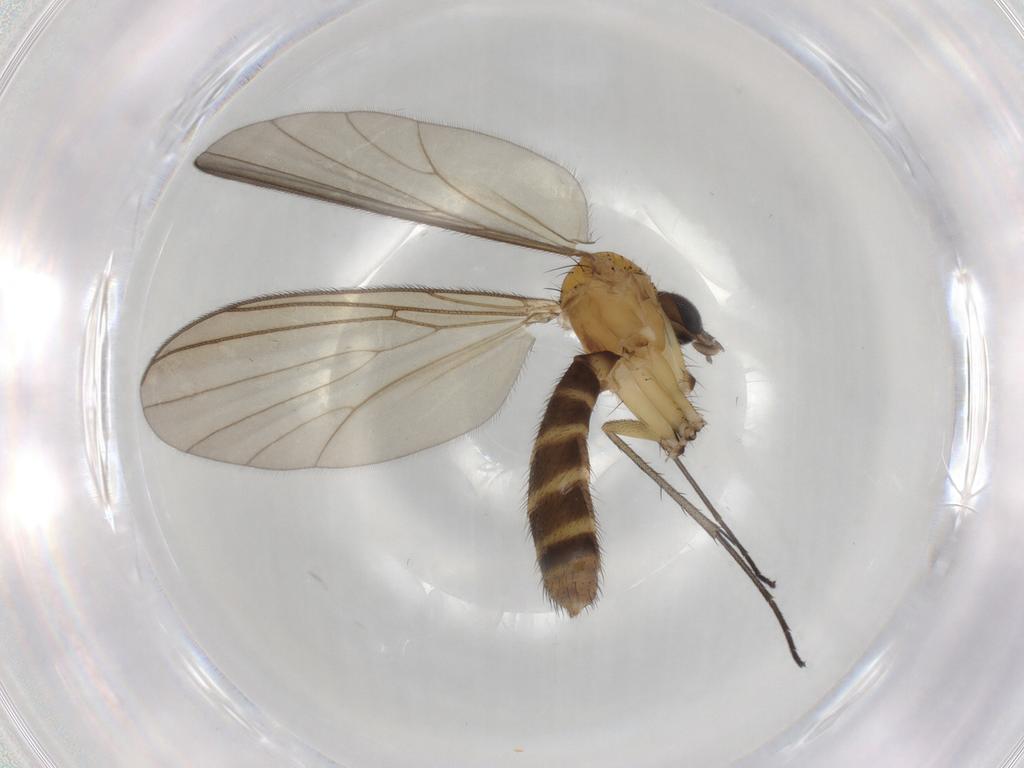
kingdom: Animalia
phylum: Arthropoda
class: Insecta
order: Diptera
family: Mycetophilidae
